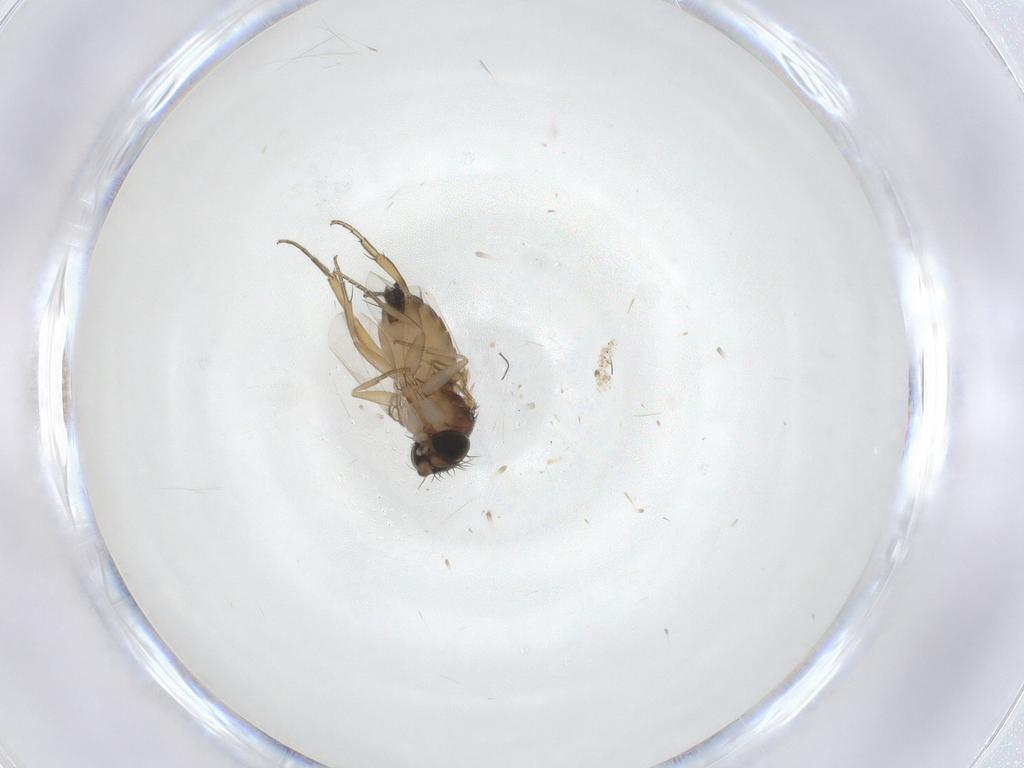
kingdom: Animalia
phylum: Arthropoda
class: Insecta
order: Diptera
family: Phoridae
